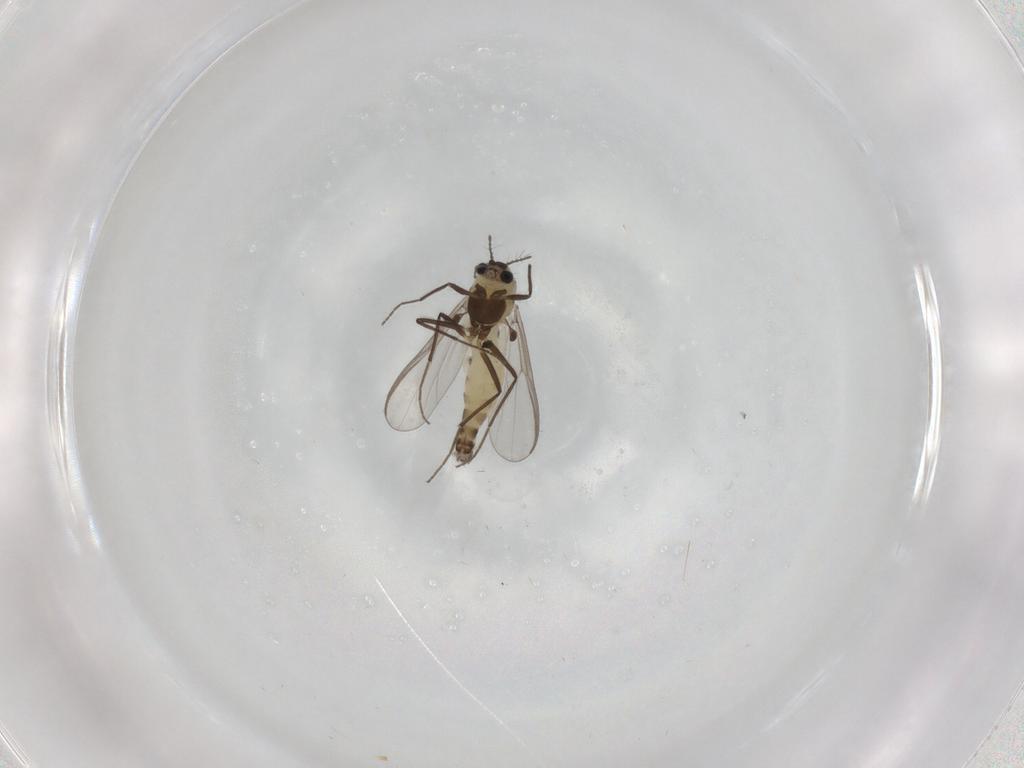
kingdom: Animalia
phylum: Arthropoda
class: Insecta
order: Diptera
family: Chironomidae
